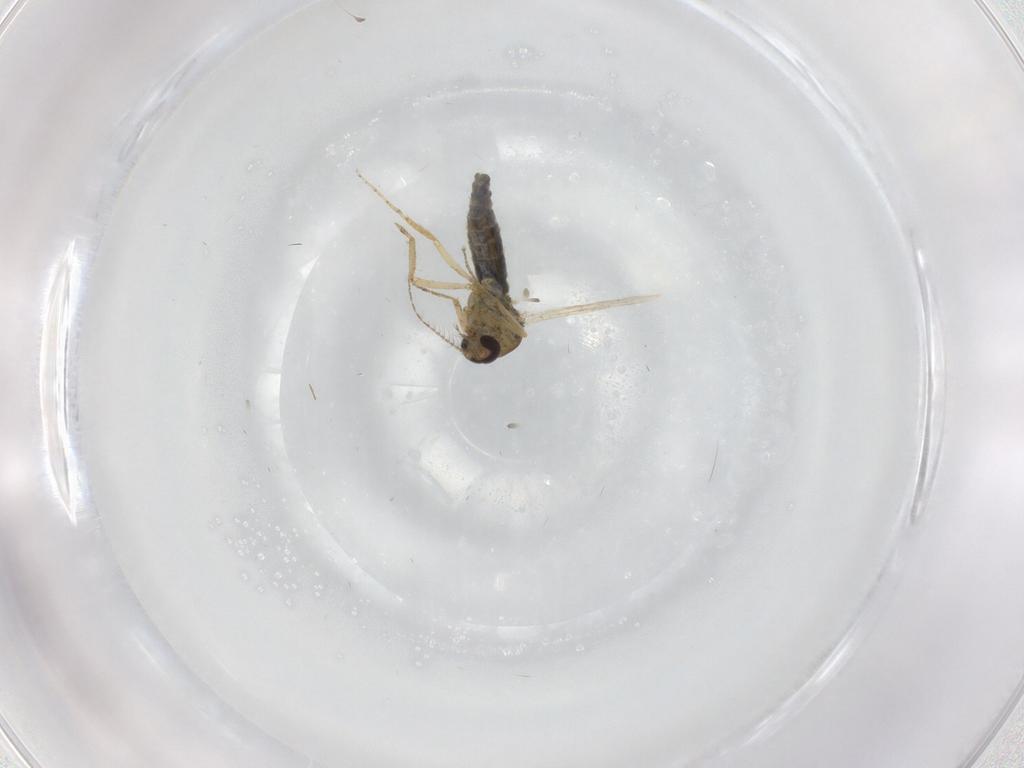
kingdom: Animalia
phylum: Arthropoda
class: Insecta
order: Diptera
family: Ceratopogonidae
